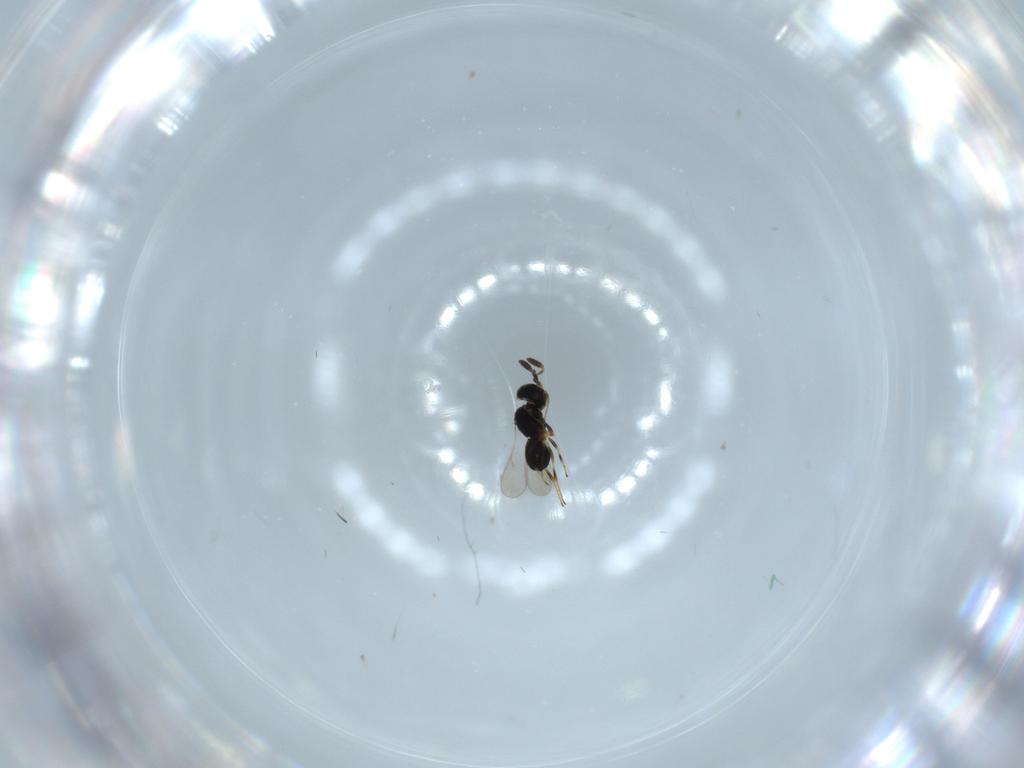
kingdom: Animalia
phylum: Arthropoda
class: Insecta
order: Hymenoptera
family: Scelionidae
